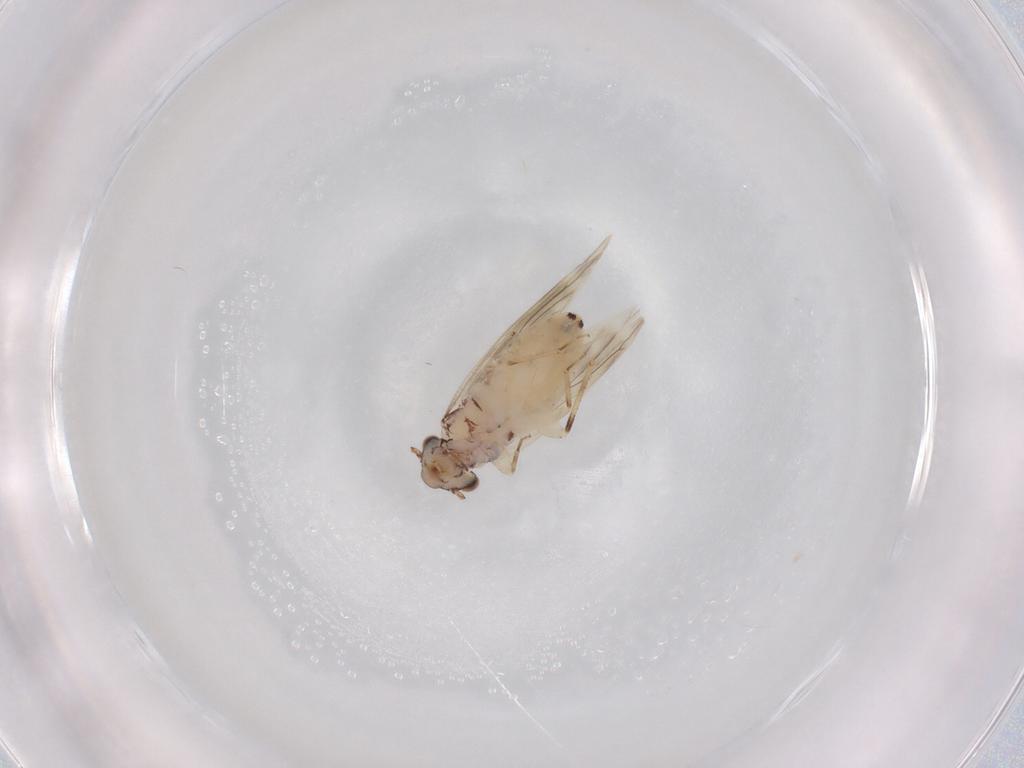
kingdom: Animalia
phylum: Arthropoda
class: Insecta
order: Psocodea
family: Lepidopsocidae
